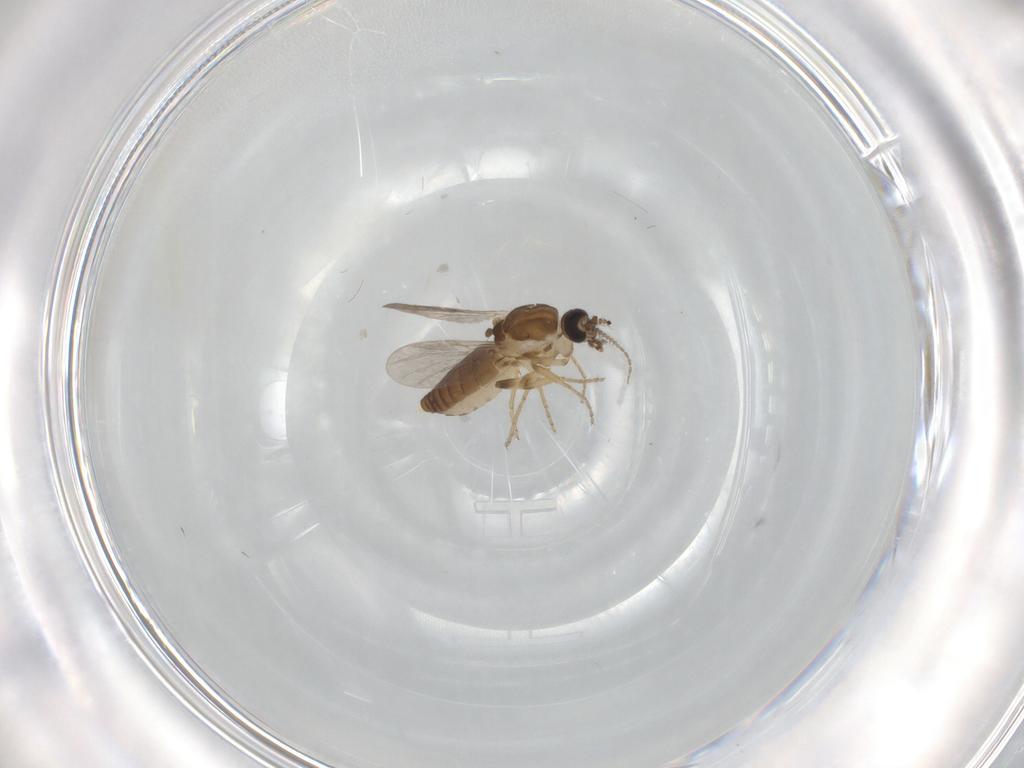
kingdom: Animalia
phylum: Arthropoda
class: Insecta
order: Diptera
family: Ceratopogonidae
